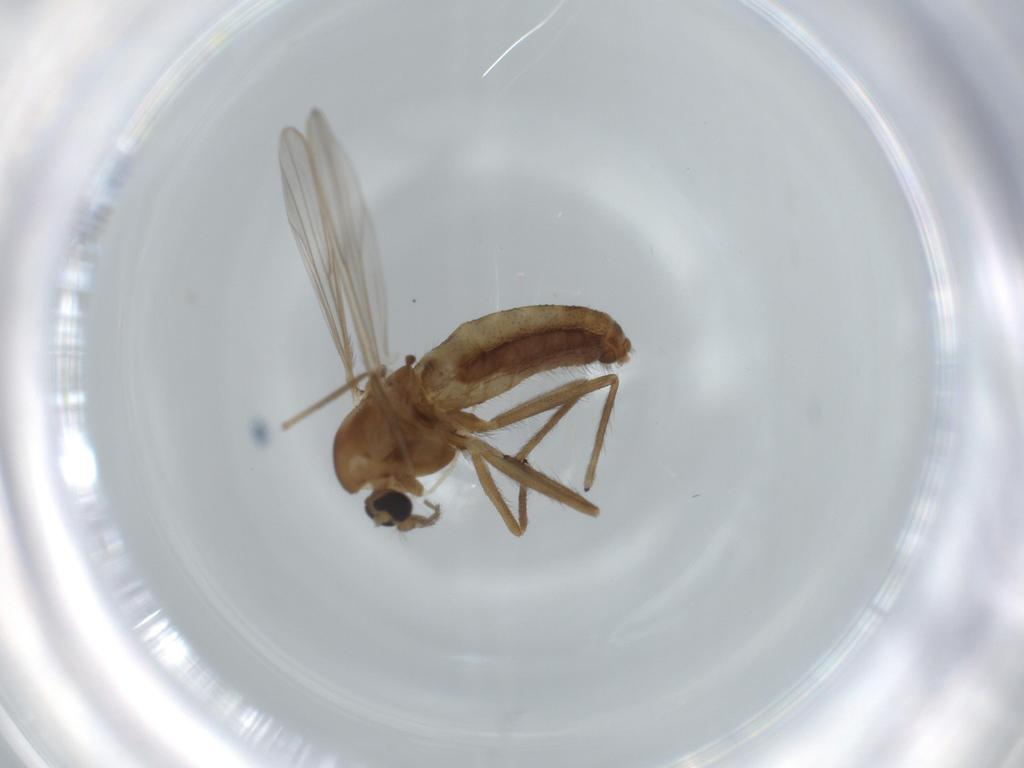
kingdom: Animalia
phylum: Arthropoda
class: Insecta
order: Diptera
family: Chironomidae
